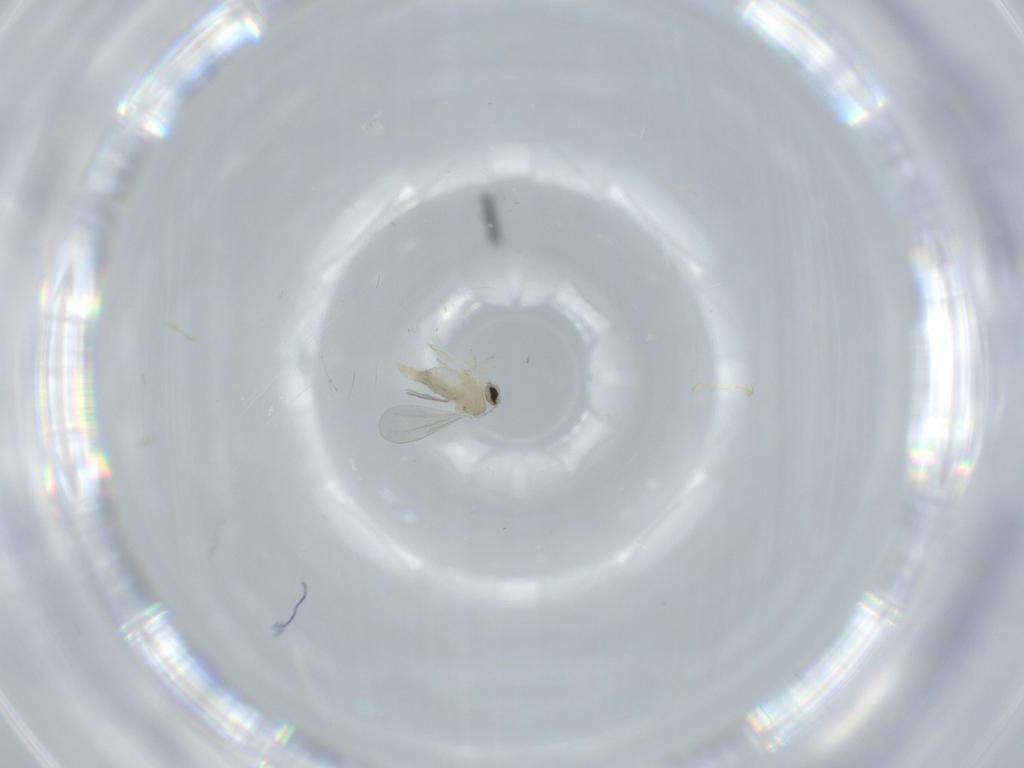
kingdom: Animalia
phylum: Arthropoda
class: Insecta
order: Diptera
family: Cecidomyiidae
